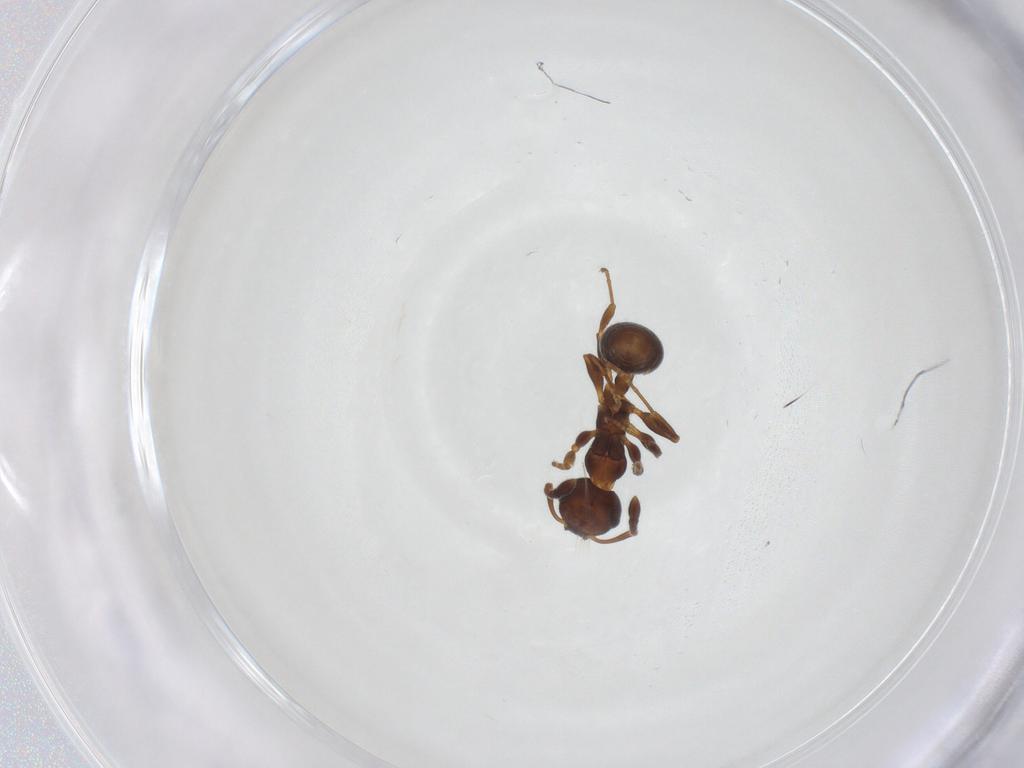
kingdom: Animalia
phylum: Arthropoda
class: Insecta
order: Hymenoptera
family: Formicidae
